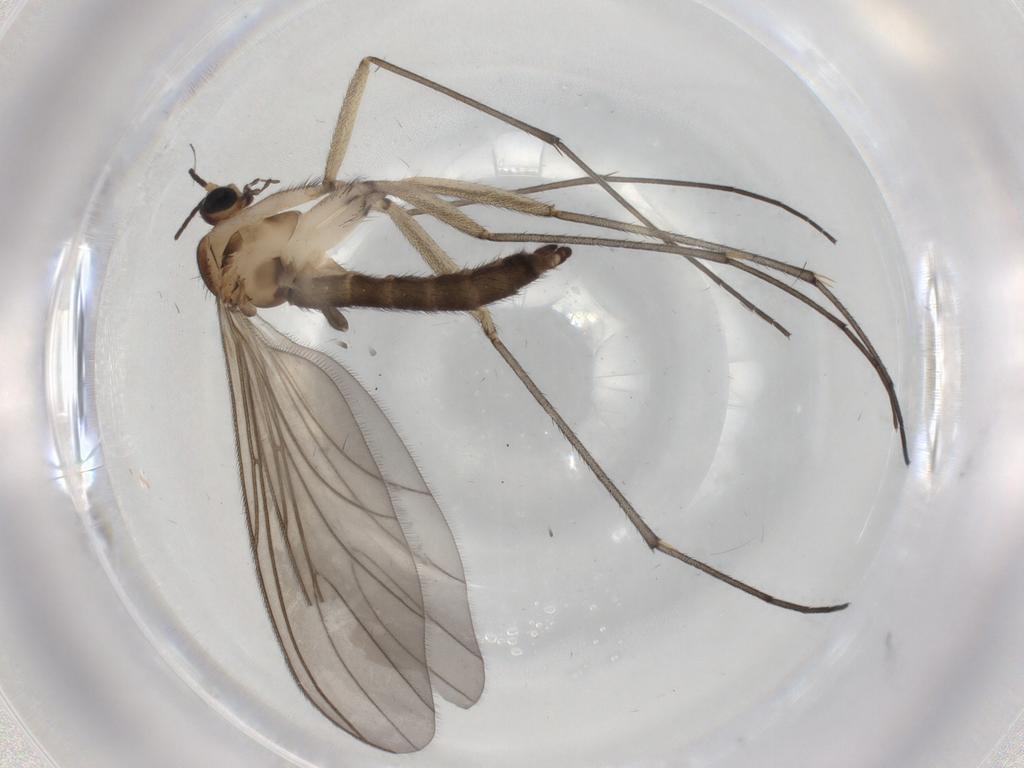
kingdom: Animalia
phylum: Arthropoda
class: Insecta
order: Diptera
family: Sciaridae
